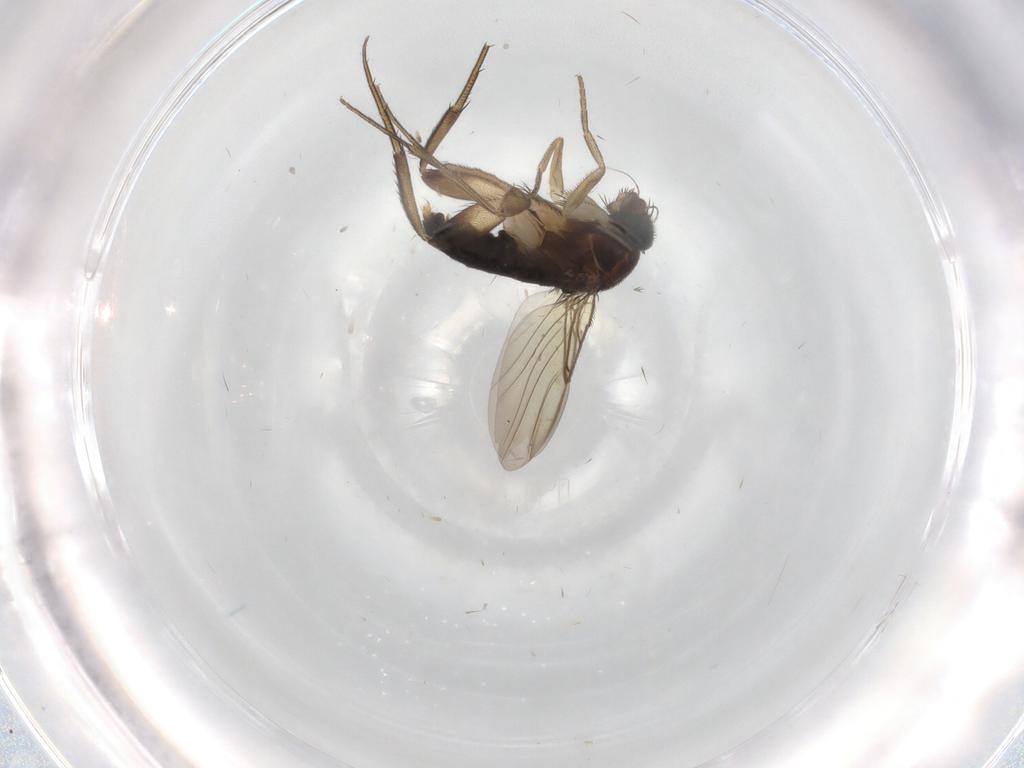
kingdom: Animalia
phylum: Arthropoda
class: Insecta
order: Diptera
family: Phoridae
